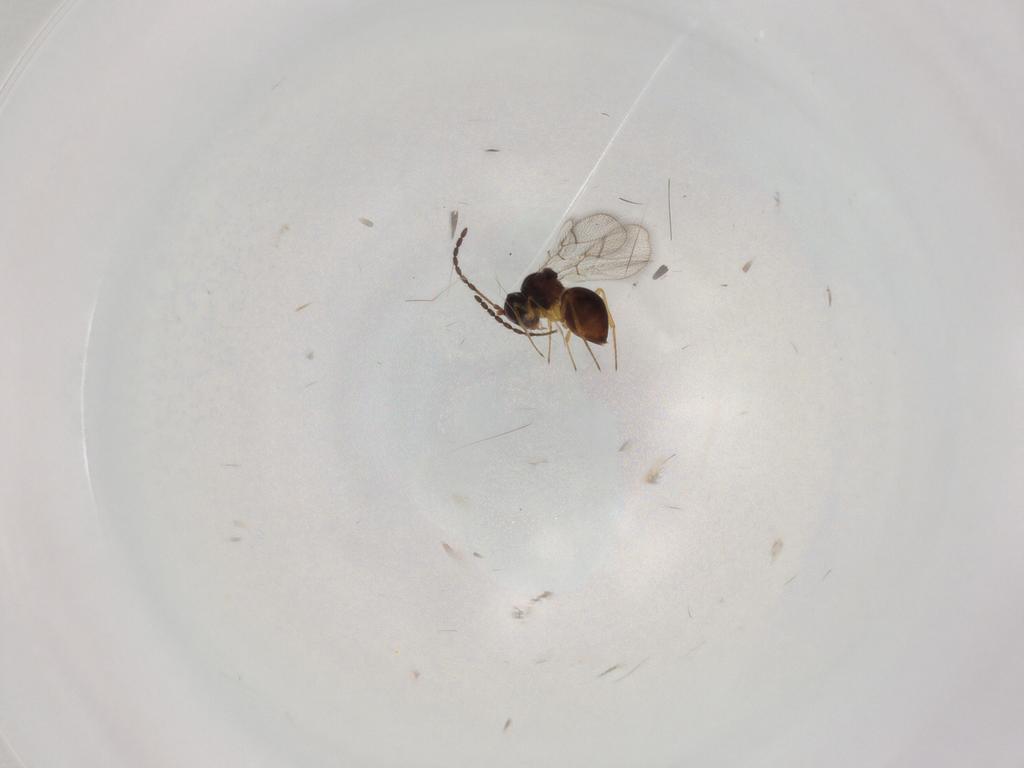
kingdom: Animalia
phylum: Arthropoda
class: Insecta
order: Hymenoptera
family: Figitidae
